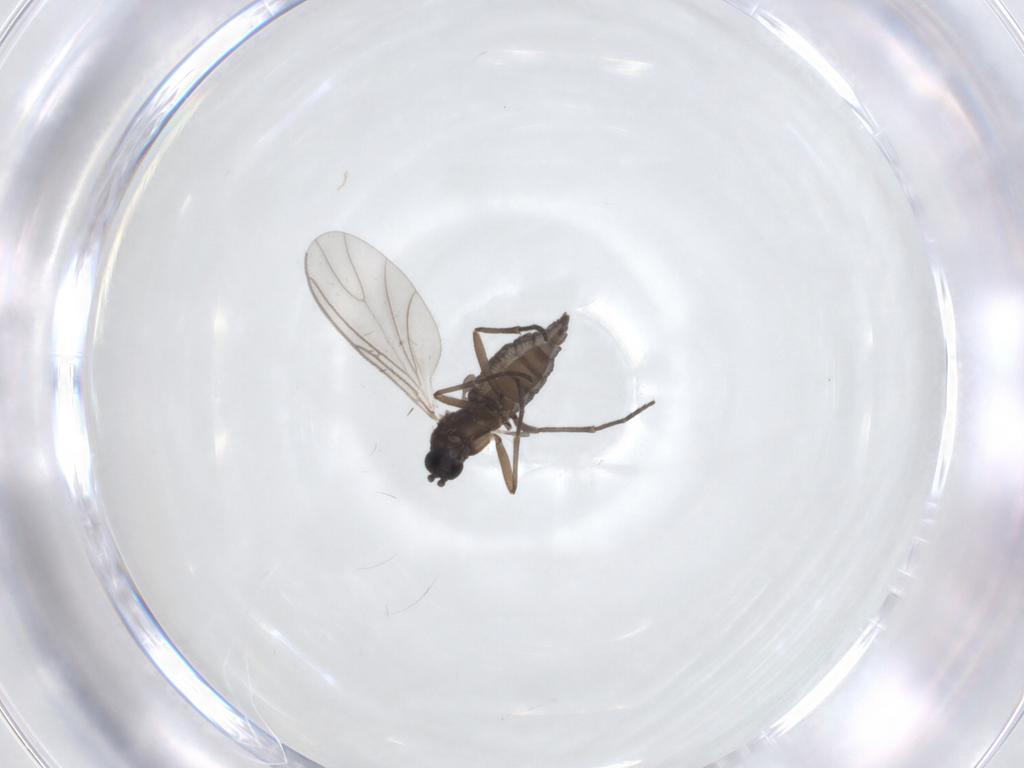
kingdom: Animalia
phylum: Arthropoda
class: Insecta
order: Diptera
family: Sciaridae
